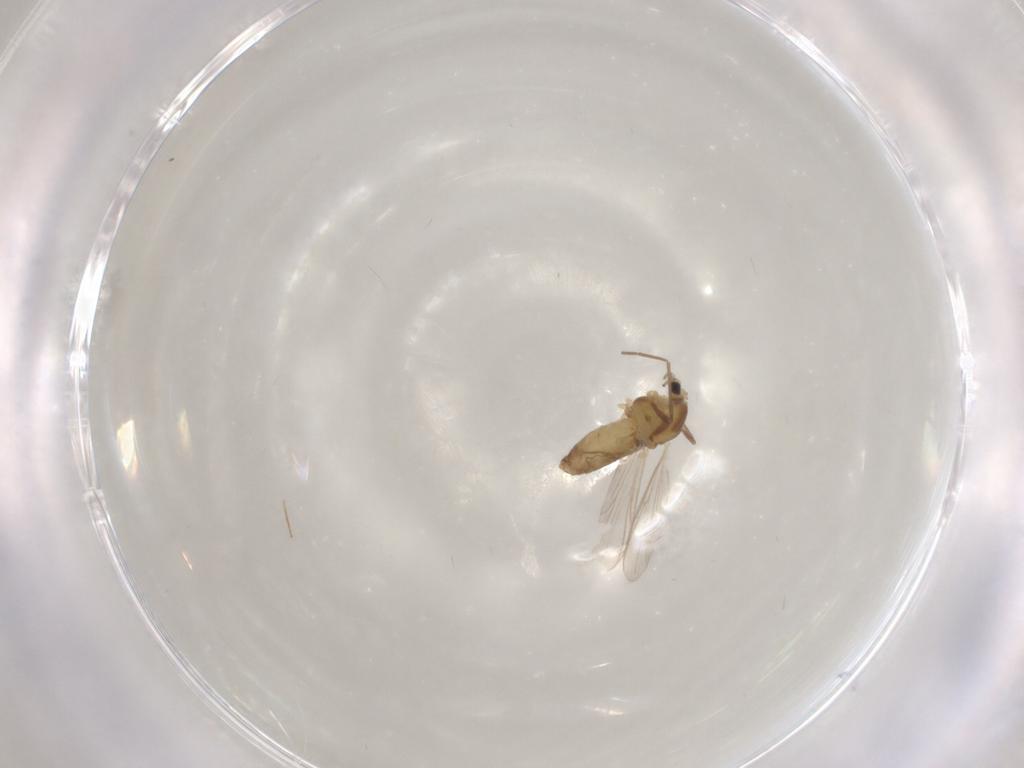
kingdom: Animalia
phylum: Arthropoda
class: Insecta
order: Diptera
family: Chironomidae
